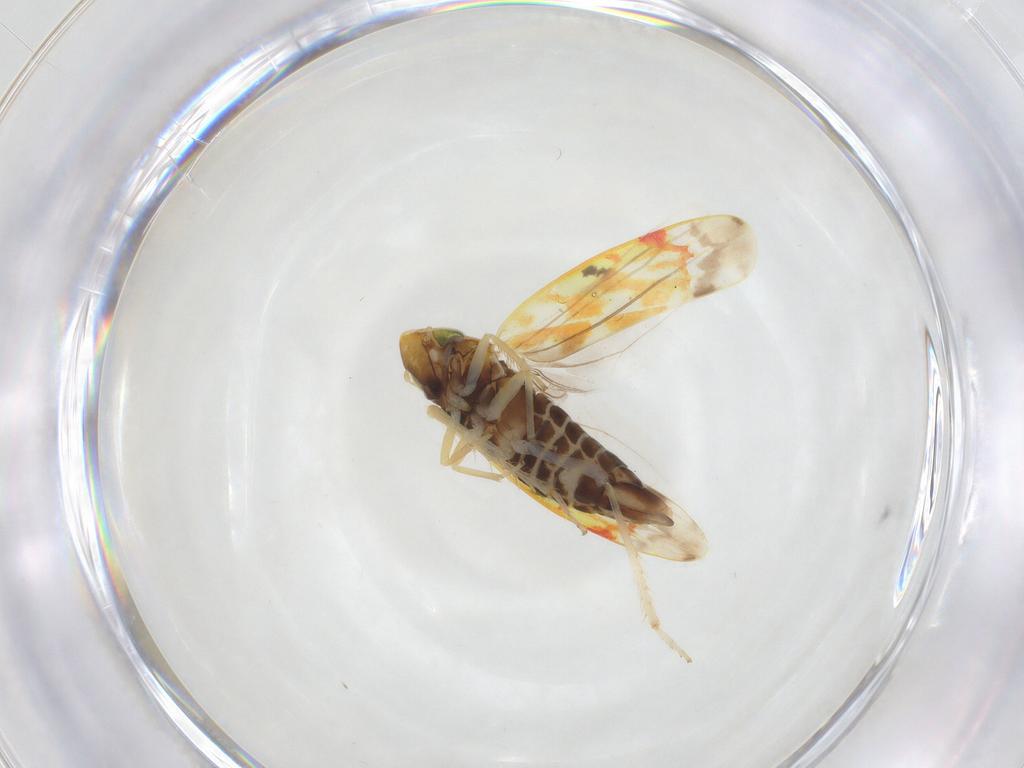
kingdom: Animalia
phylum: Arthropoda
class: Insecta
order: Hemiptera
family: Cicadellidae
